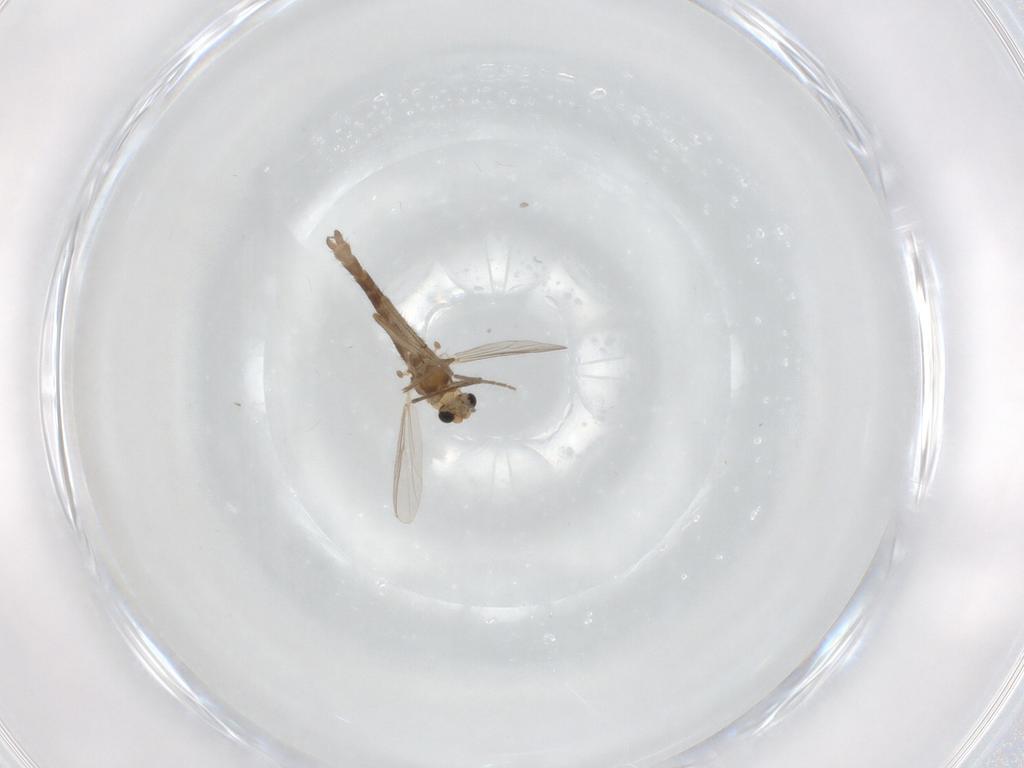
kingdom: Animalia
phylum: Arthropoda
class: Insecta
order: Diptera
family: Chironomidae
